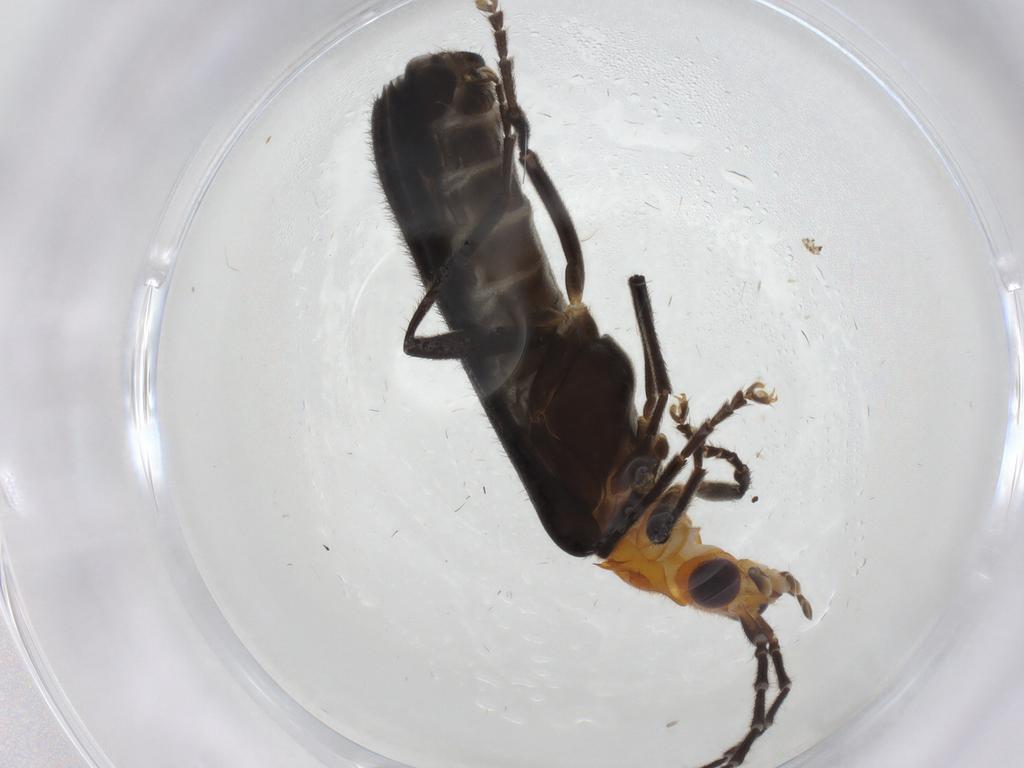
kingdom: Animalia
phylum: Arthropoda
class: Insecta
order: Coleoptera
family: Cantharidae
